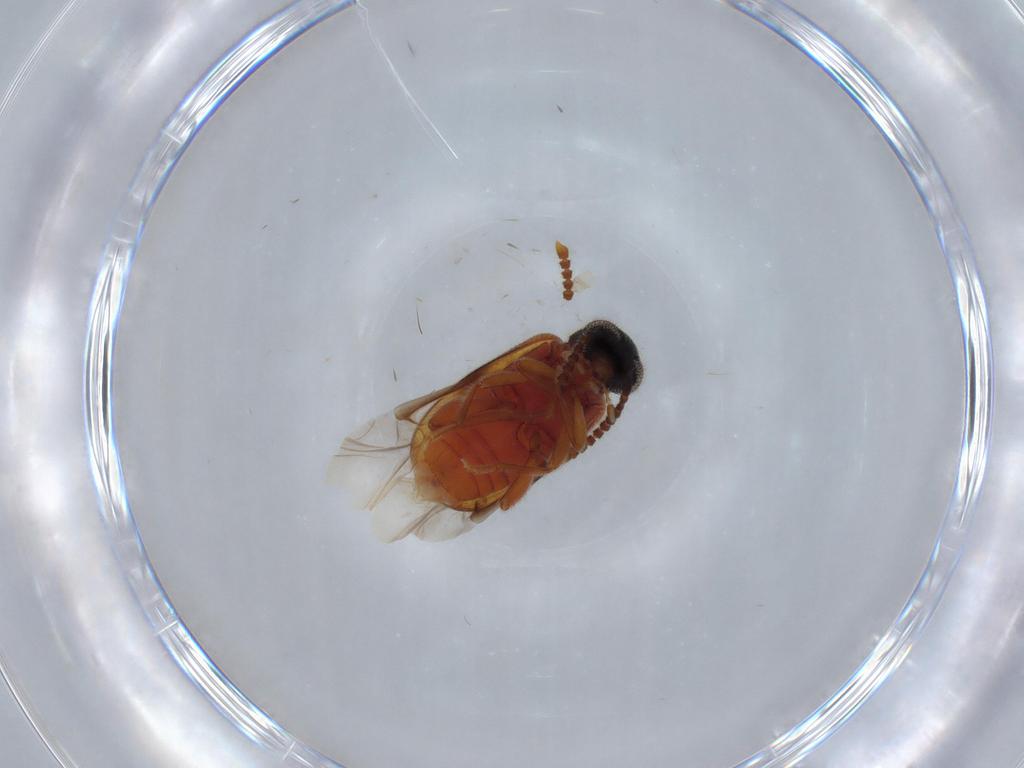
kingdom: Animalia
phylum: Arthropoda
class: Insecta
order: Coleoptera
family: Aderidae
